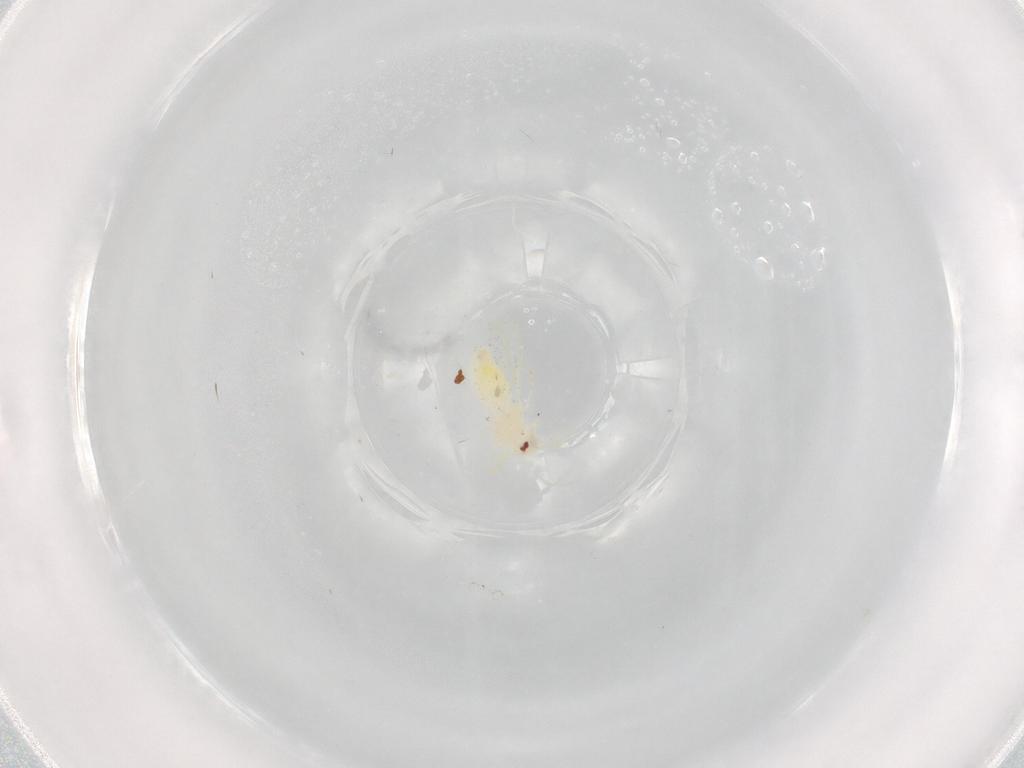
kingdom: Animalia
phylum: Arthropoda
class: Insecta
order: Hemiptera
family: Aleyrodidae
